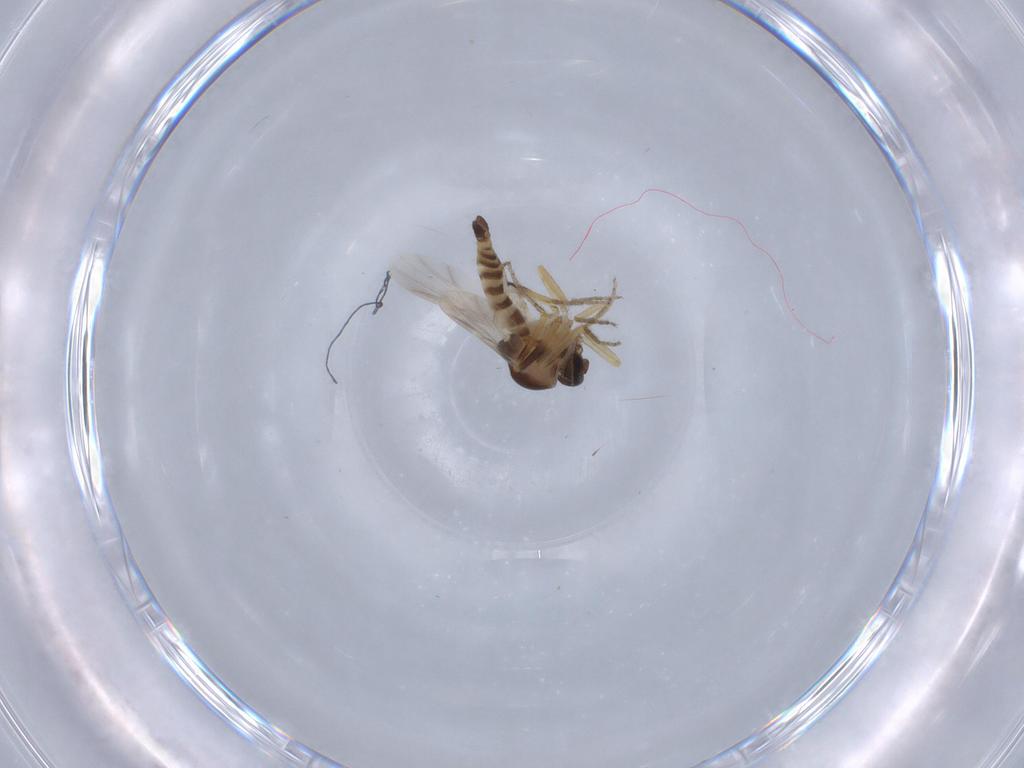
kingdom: Animalia
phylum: Arthropoda
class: Insecta
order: Diptera
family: Ceratopogonidae
